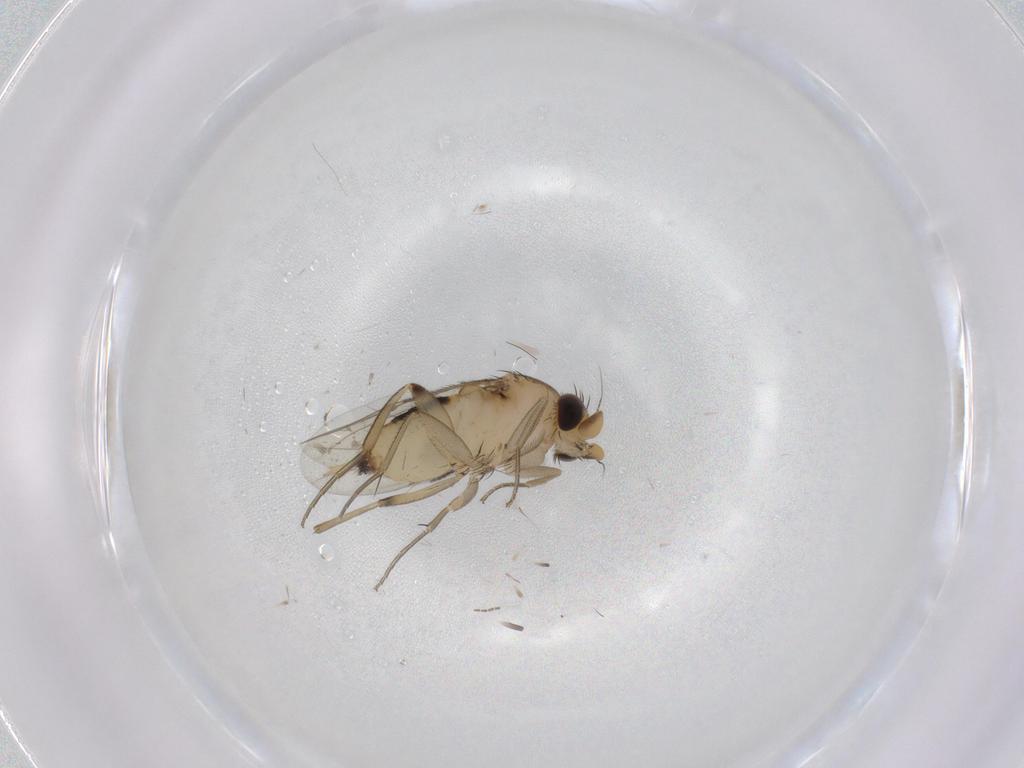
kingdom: Animalia
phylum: Arthropoda
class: Insecta
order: Diptera
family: Phoridae
